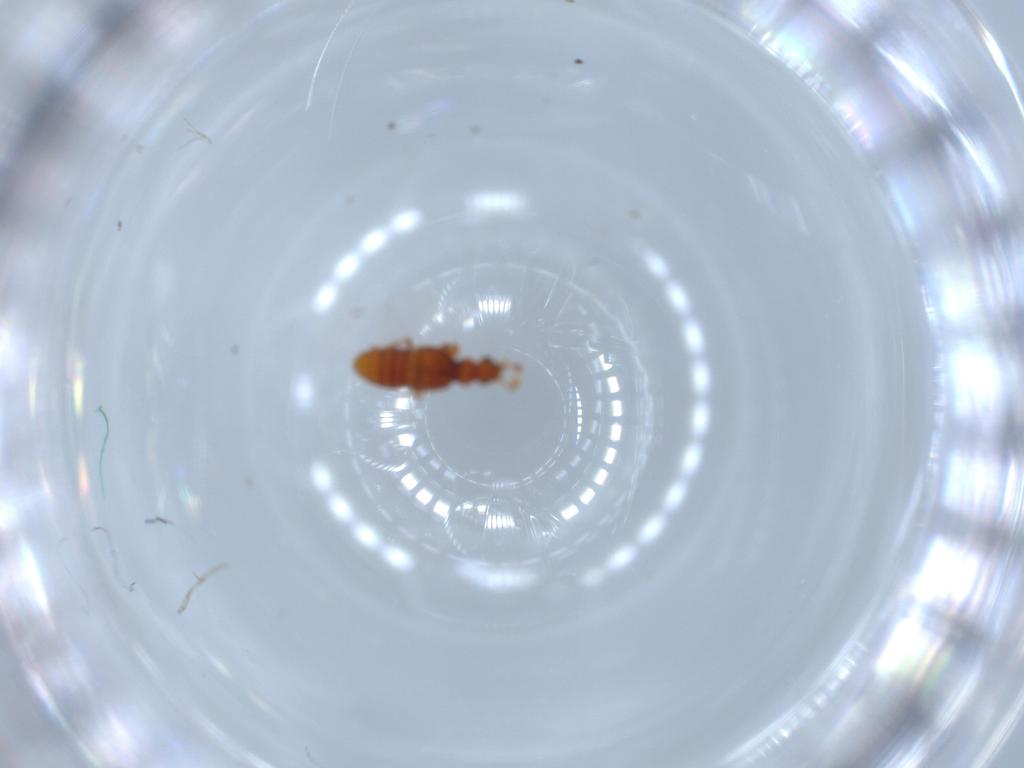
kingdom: Animalia
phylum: Arthropoda
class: Insecta
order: Coleoptera
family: Staphylinidae
